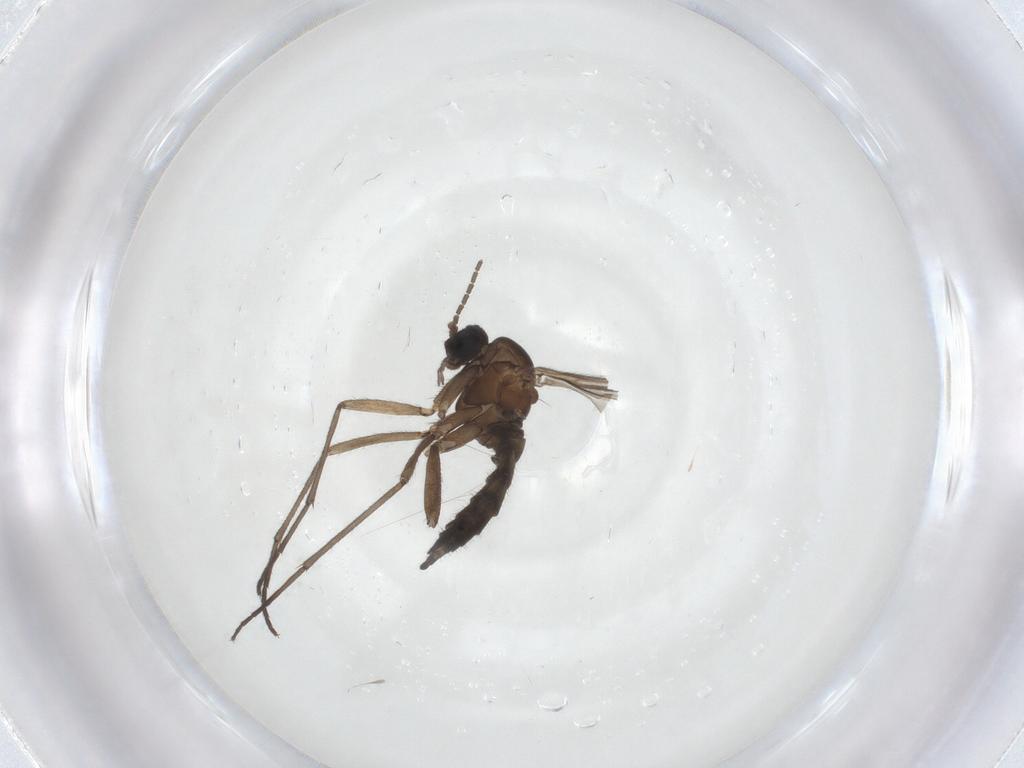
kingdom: Animalia
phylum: Arthropoda
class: Insecta
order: Diptera
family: Sciaridae
